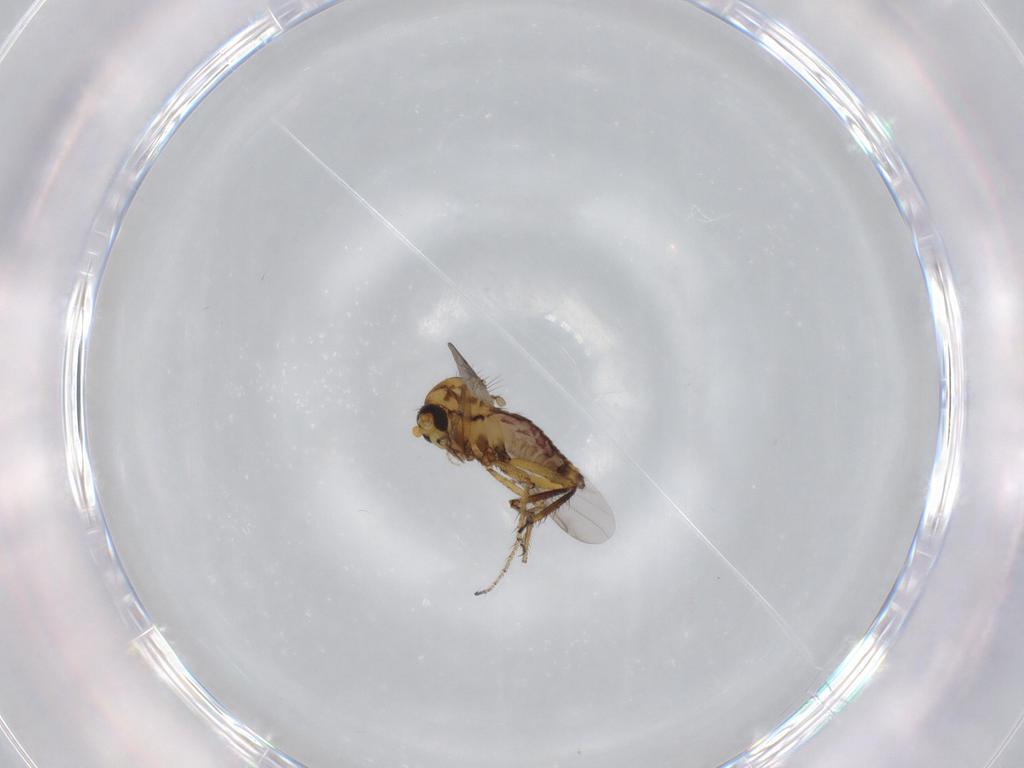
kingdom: Animalia
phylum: Arthropoda
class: Insecta
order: Diptera
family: Ceratopogonidae
